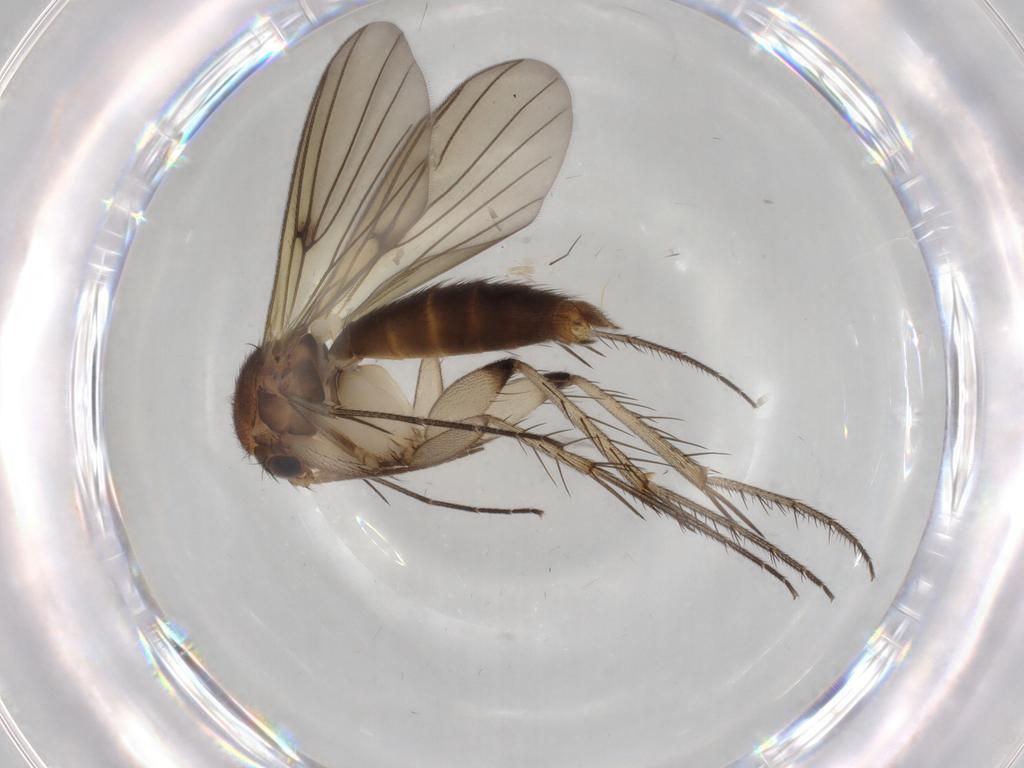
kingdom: Animalia
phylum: Arthropoda
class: Insecta
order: Diptera
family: Mycetophilidae
